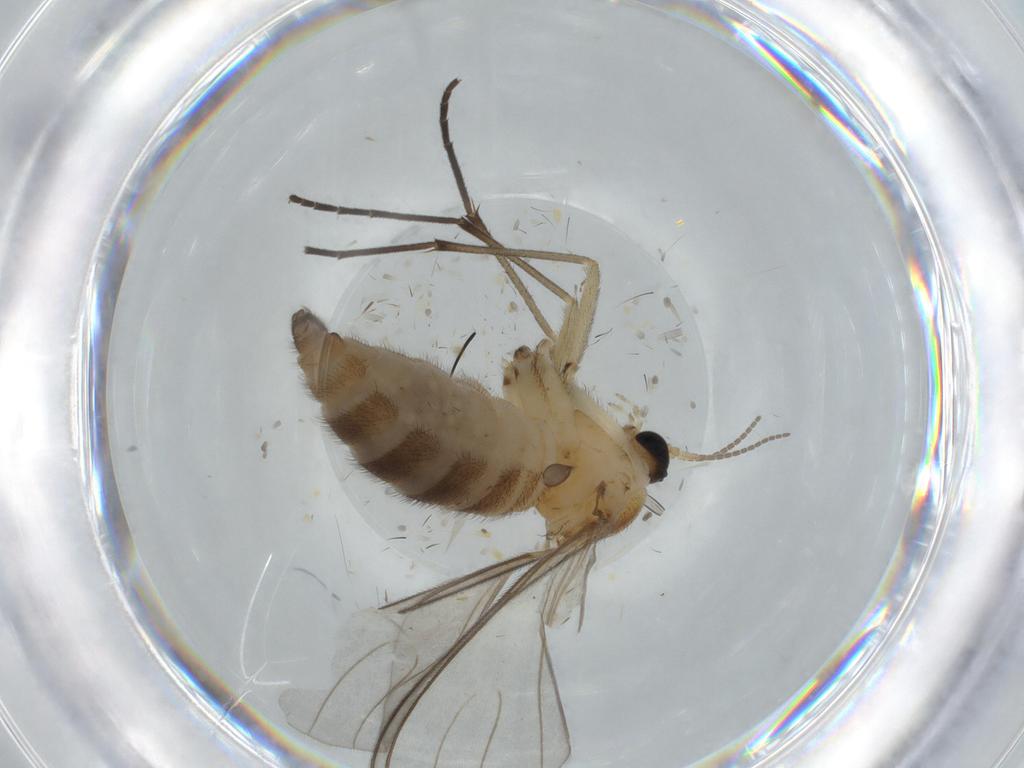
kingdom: Animalia
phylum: Arthropoda
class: Insecta
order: Diptera
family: Sciaridae
